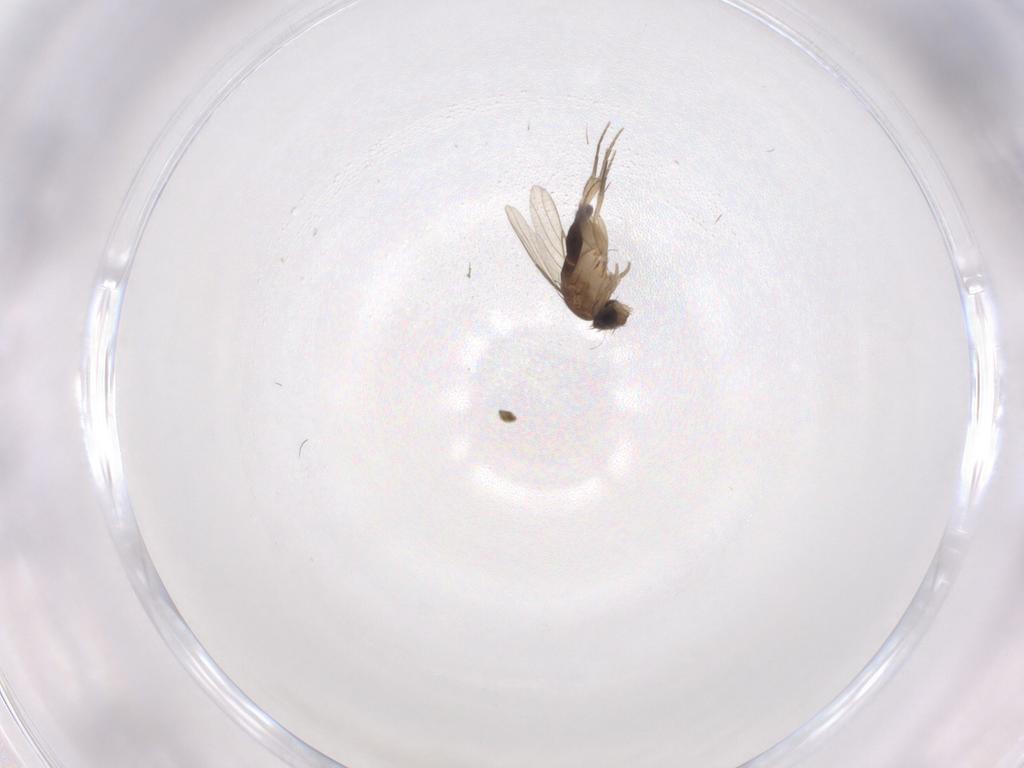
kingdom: Animalia
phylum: Arthropoda
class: Insecta
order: Diptera
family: Phoridae
